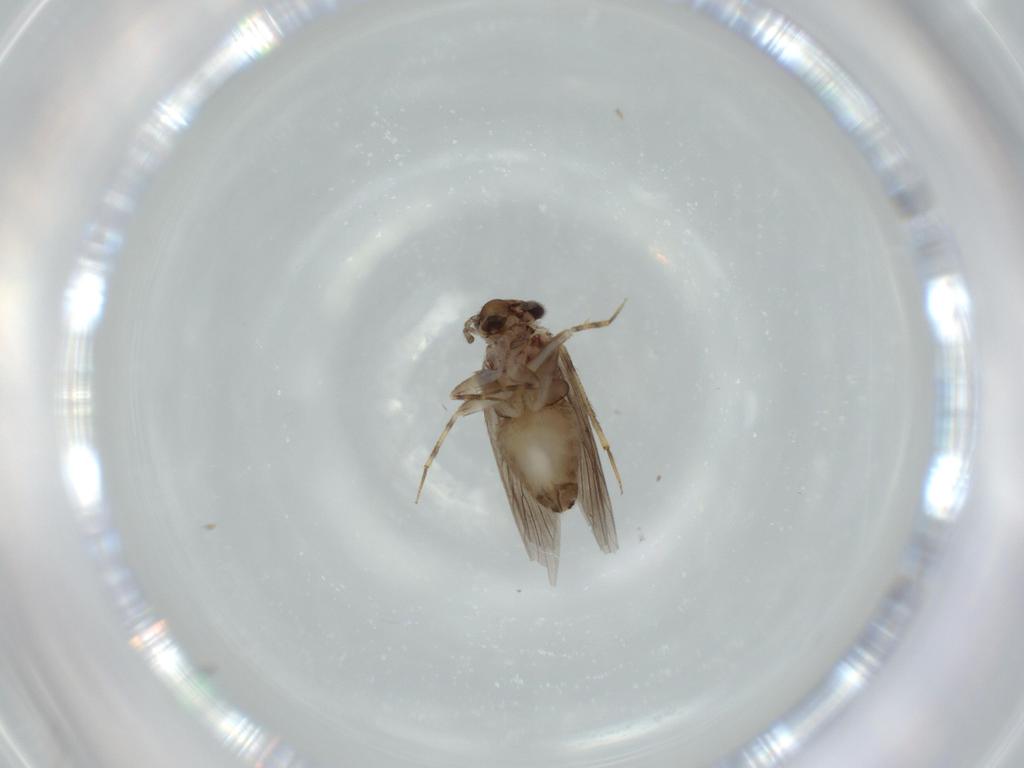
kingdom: Animalia
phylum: Arthropoda
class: Insecta
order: Psocodea
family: Lepidopsocidae
